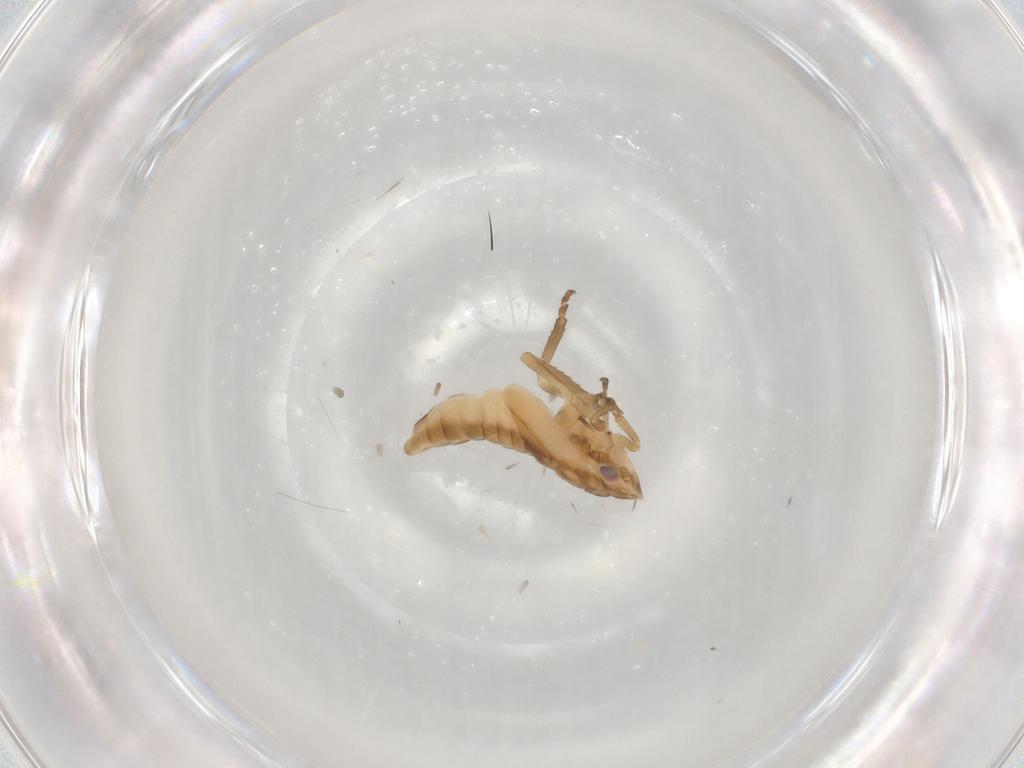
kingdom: Animalia
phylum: Arthropoda
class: Insecta
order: Hemiptera
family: Cicadellidae
